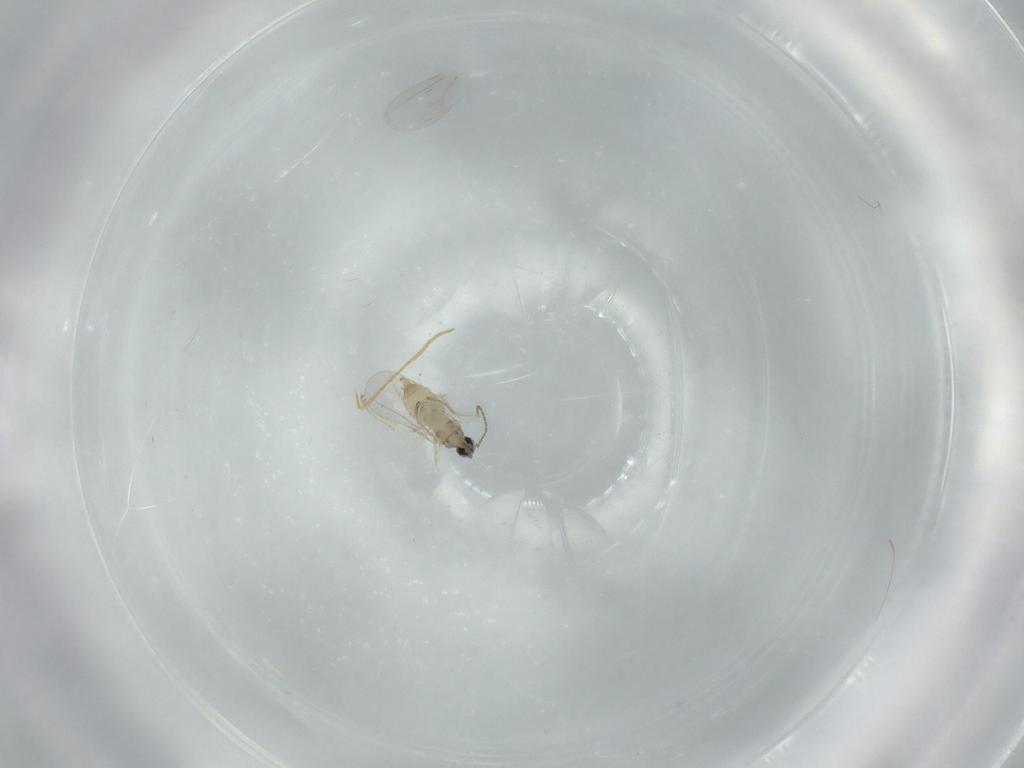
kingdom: Animalia
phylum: Arthropoda
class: Insecta
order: Diptera
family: Cecidomyiidae
